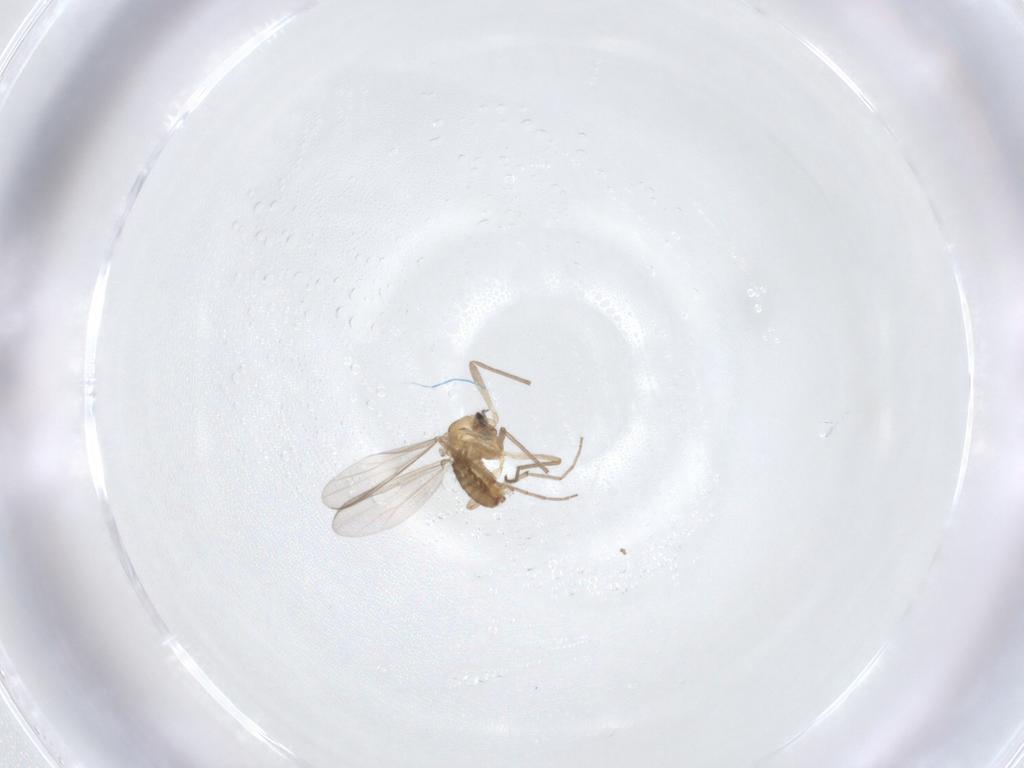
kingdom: Animalia
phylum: Arthropoda
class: Insecta
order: Diptera
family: Chironomidae
